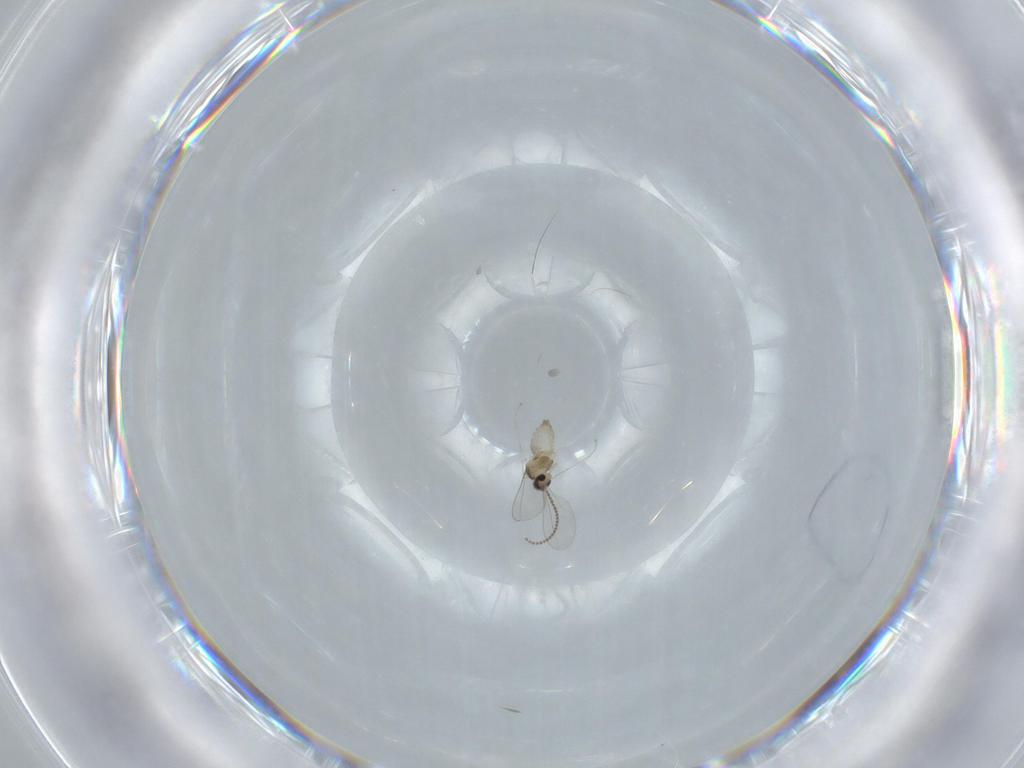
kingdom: Animalia
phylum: Arthropoda
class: Insecta
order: Diptera
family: Cecidomyiidae
